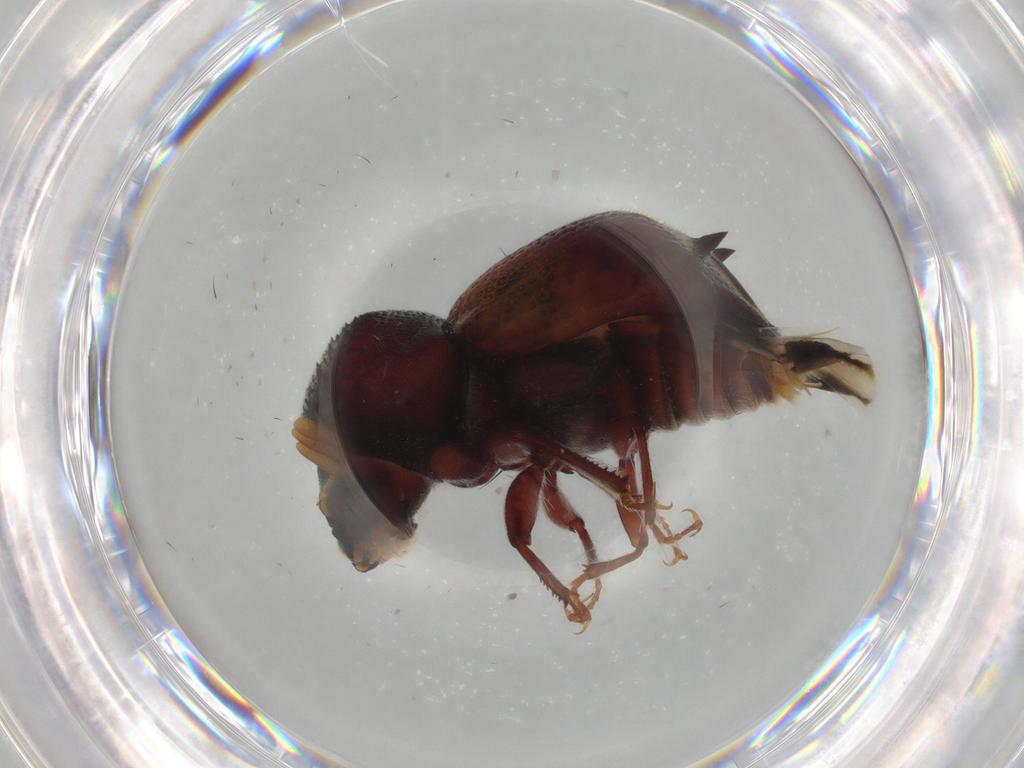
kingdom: Animalia
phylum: Arthropoda
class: Insecta
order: Coleoptera
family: Bostrichidae
